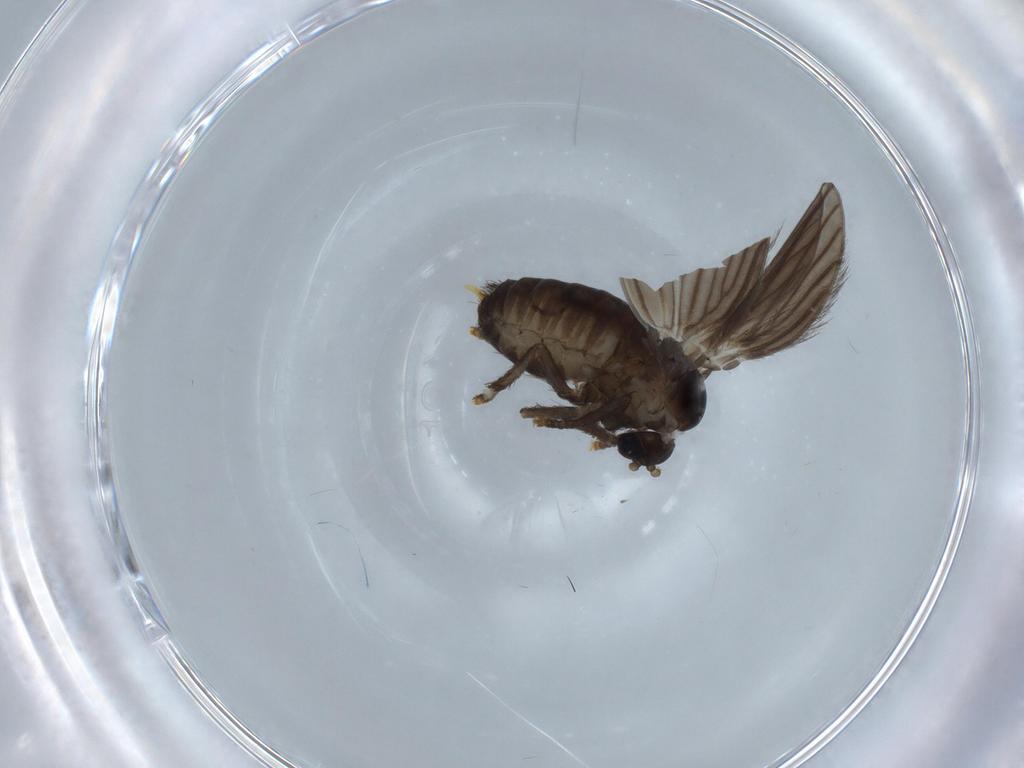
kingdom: Animalia
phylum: Arthropoda
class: Insecta
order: Diptera
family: Psychodidae
